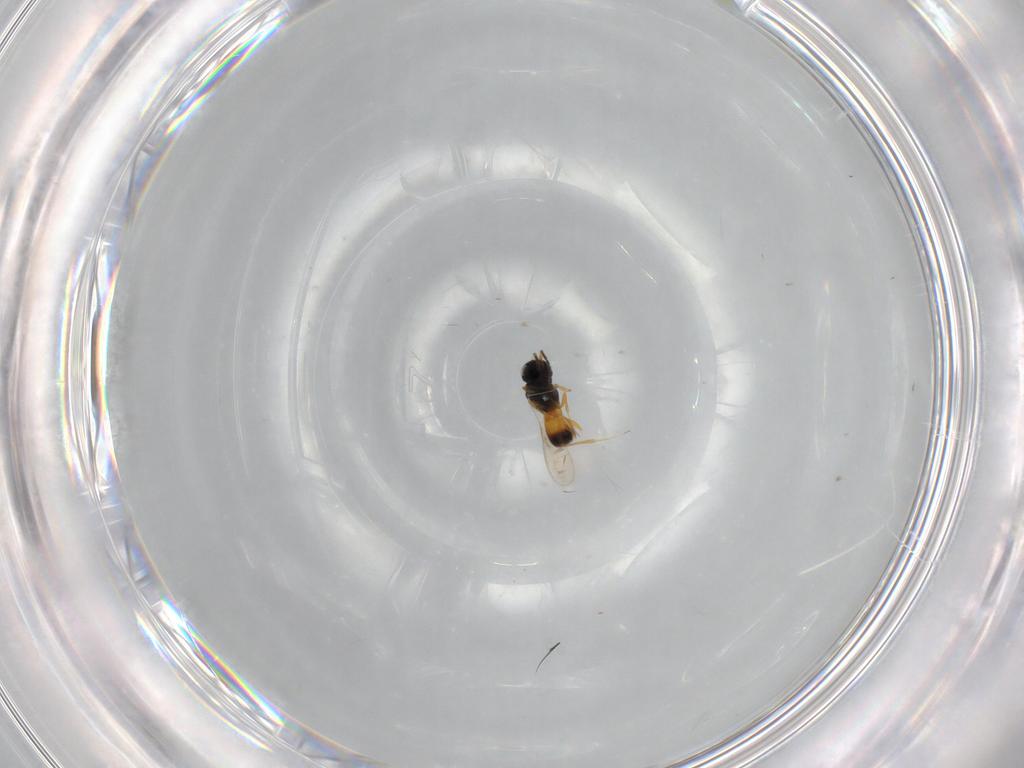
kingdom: Animalia
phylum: Arthropoda
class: Insecta
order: Hymenoptera
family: Scelionidae
